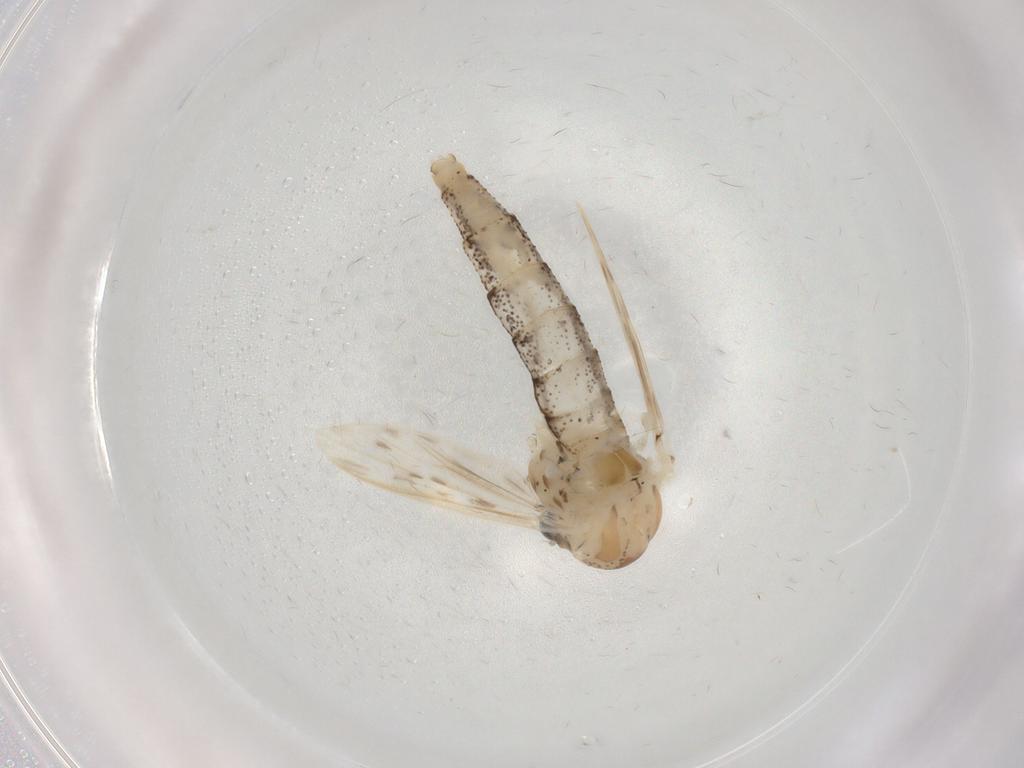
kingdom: Animalia
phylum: Arthropoda
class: Insecta
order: Diptera
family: Chaoboridae
